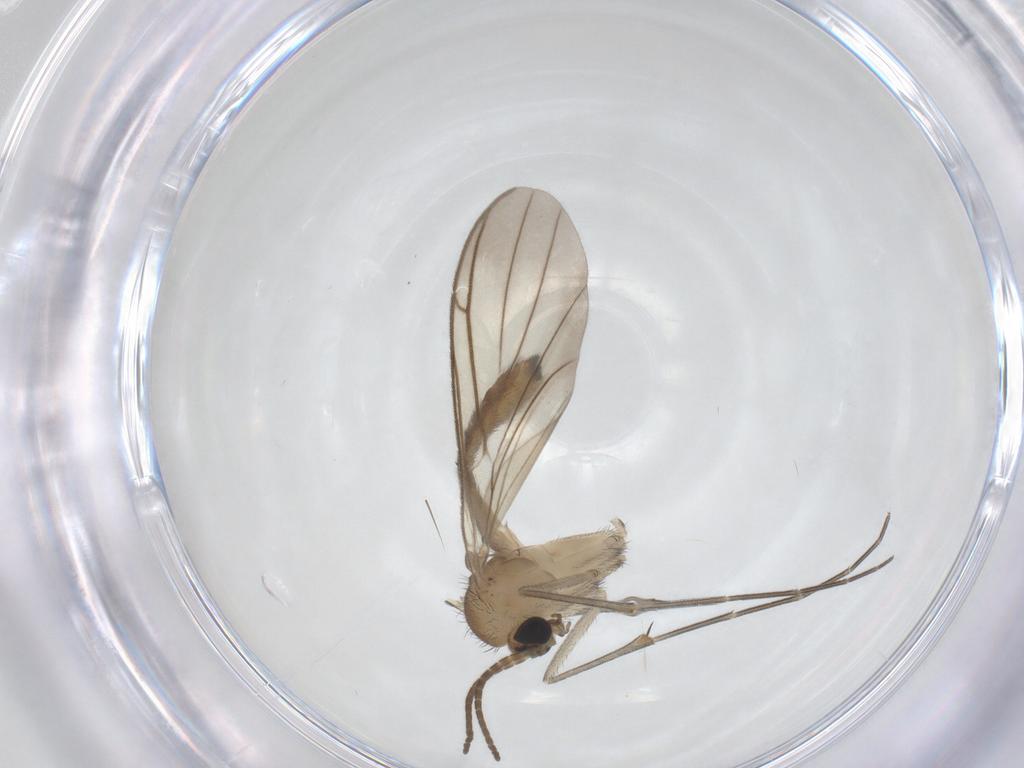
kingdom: Animalia
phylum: Arthropoda
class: Insecta
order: Diptera
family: Keroplatidae
